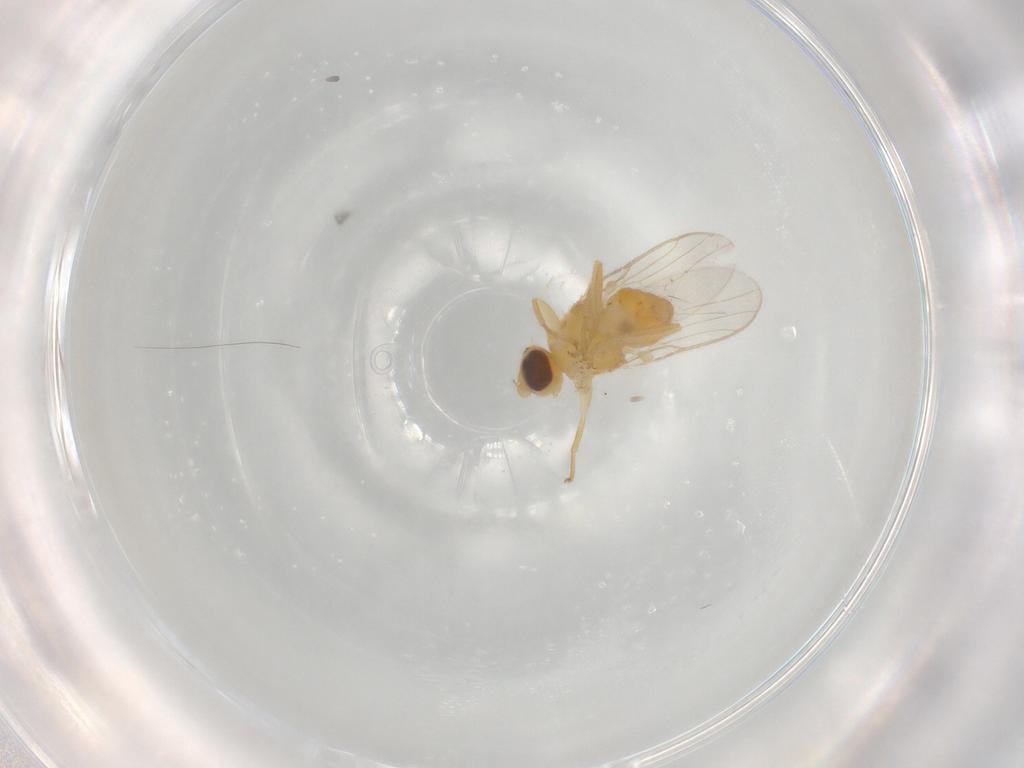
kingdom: Animalia
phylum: Arthropoda
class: Insecta
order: Diptera
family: Chloropidae
